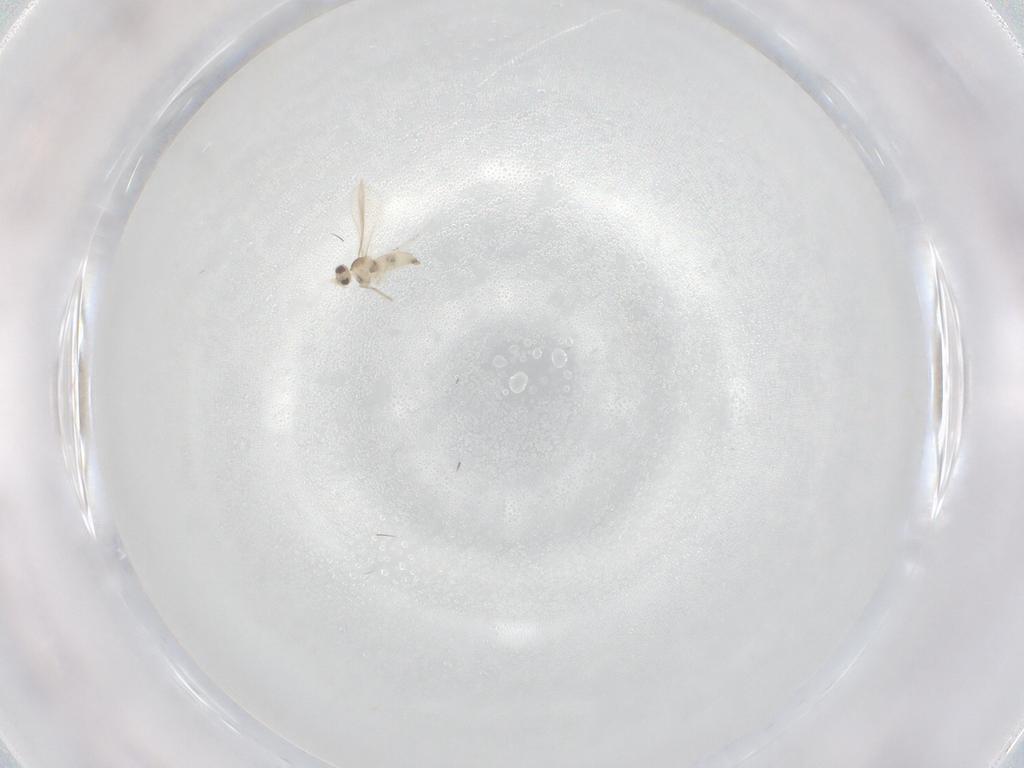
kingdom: Animalia
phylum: Arthropoda
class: Insecta
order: Diptera
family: Cecidomyiidae
